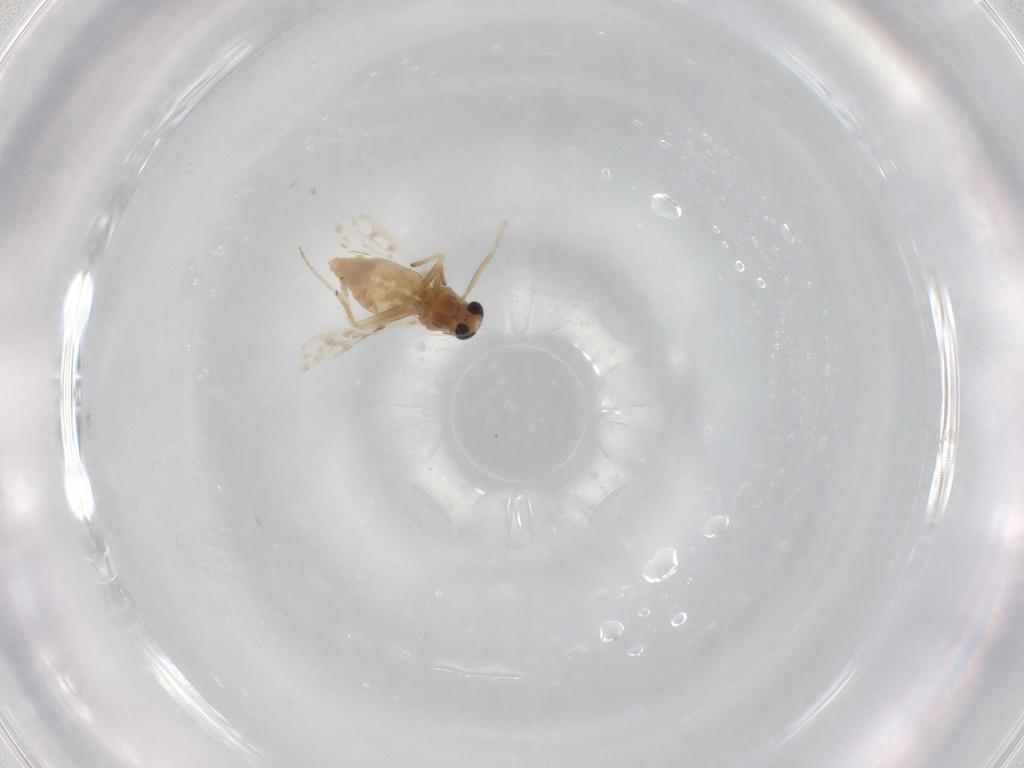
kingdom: Animalia
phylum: Arthropoda
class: Insecta
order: Diptera
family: Chironomidae
